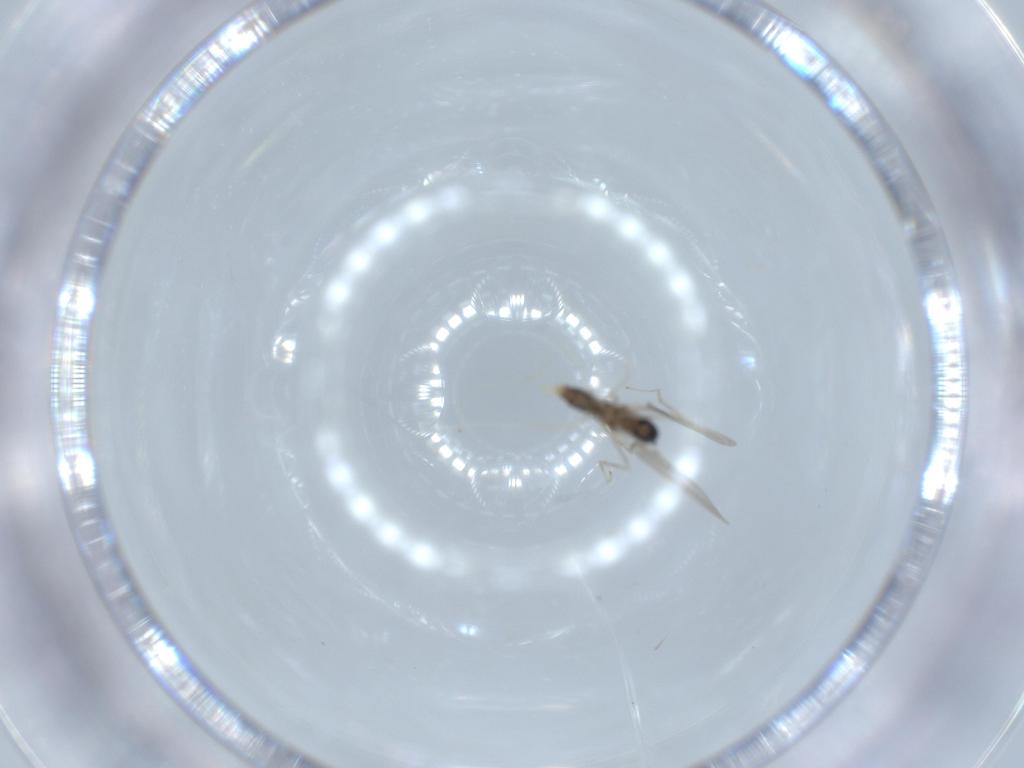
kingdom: Animalia
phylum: Arthropoda
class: Insecta
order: Diptera
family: Cecidomyiidae
